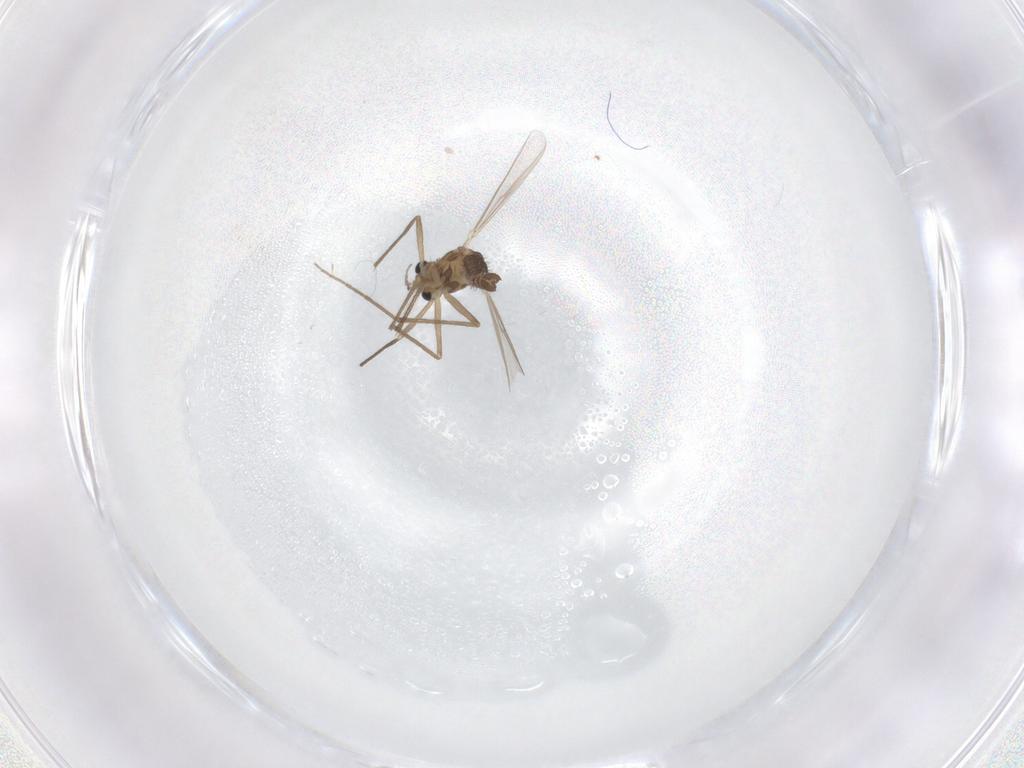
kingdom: Animalia
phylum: Arthropoda
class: Insecta
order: Diptera
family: Chironomidae
